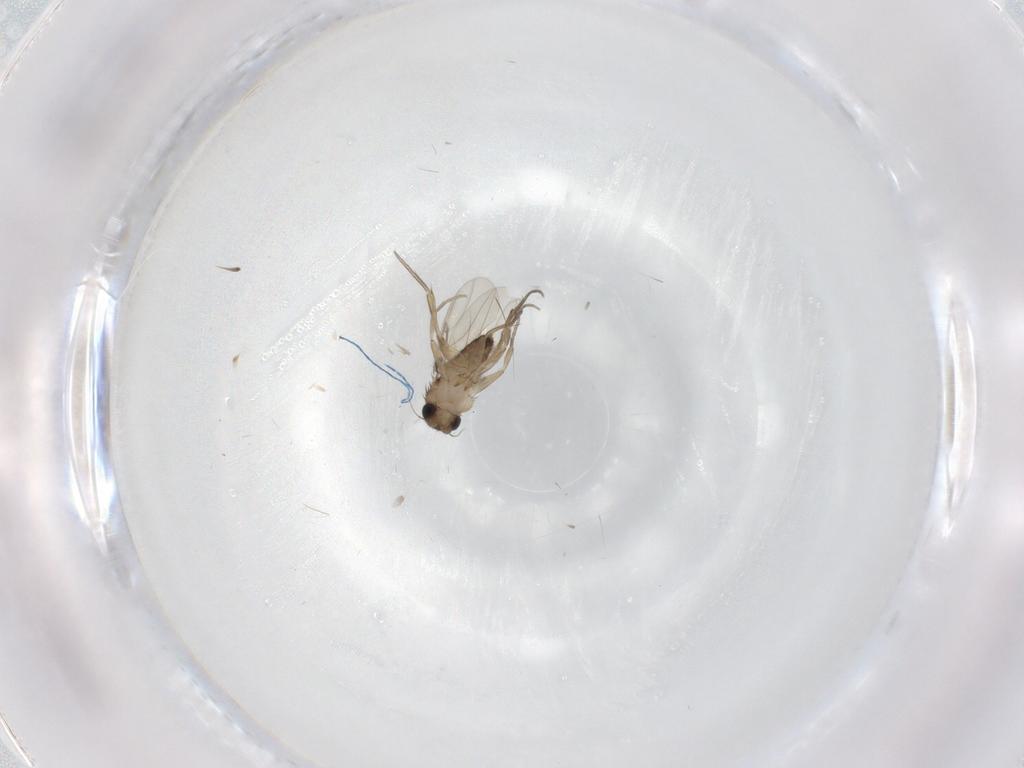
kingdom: Animalia
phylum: Arthropoda
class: Insecta
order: Diptera
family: Phoridae
